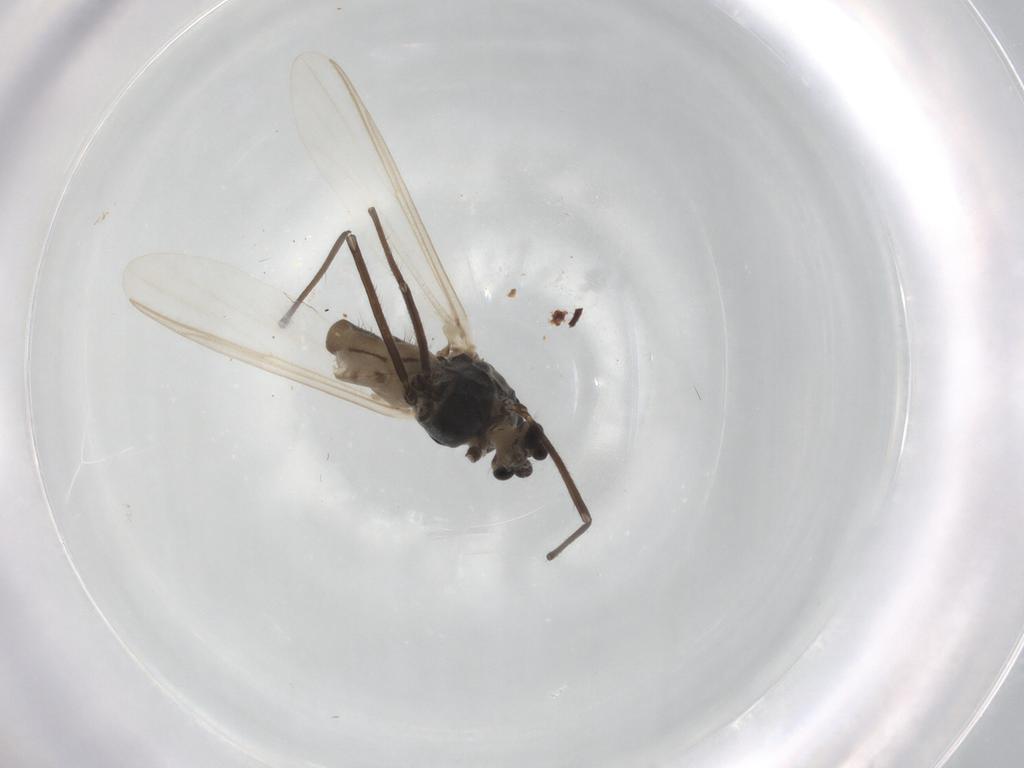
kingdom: Animalia
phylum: Arthropoda
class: Insecta
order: Diptera
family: Chironomidae
